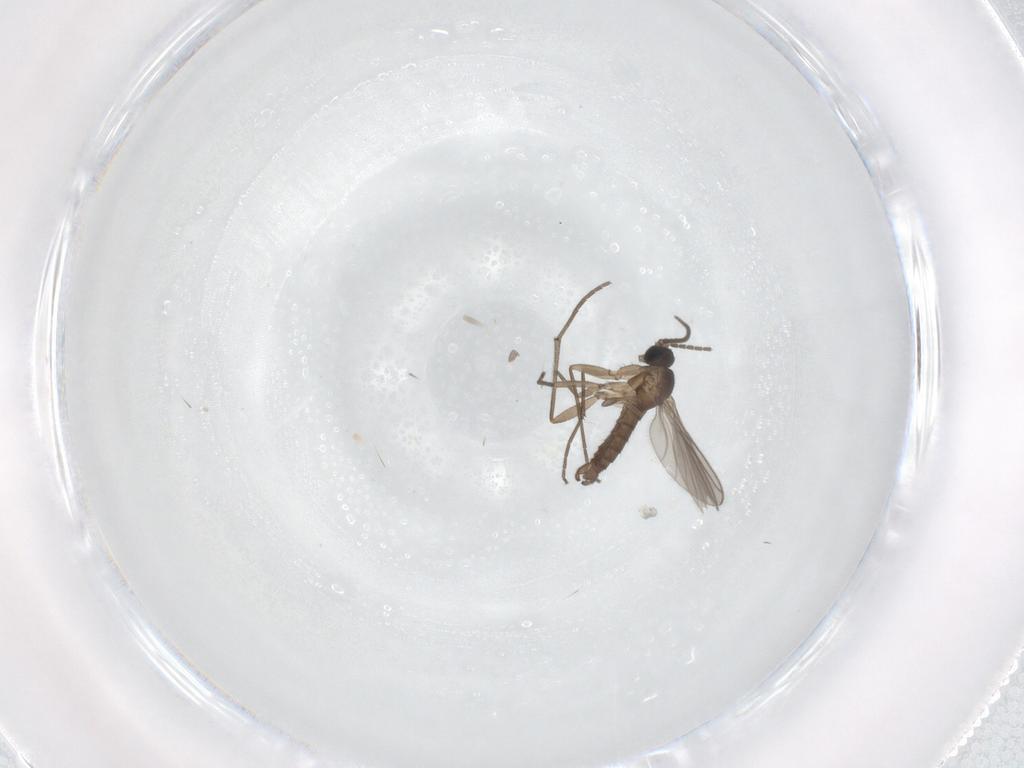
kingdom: Animalia
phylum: Arthropoda
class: Insecta
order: Diptera
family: Sciaridae
